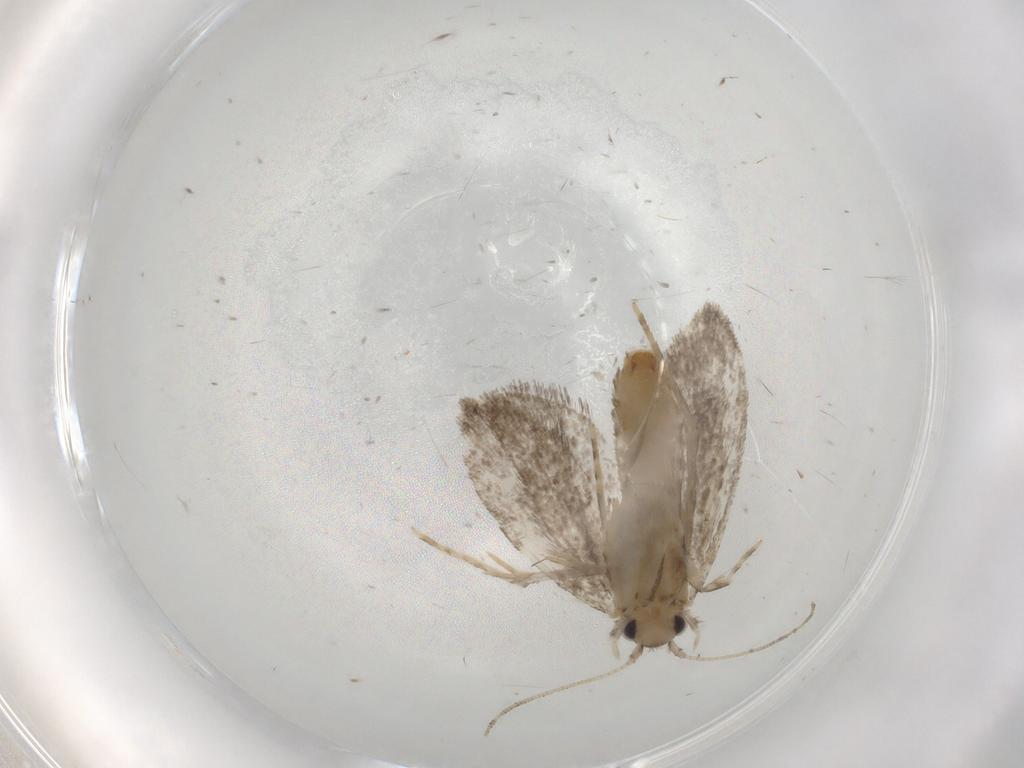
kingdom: Animalia
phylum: Arthropoda
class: Insecta
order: Lepidoptera
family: Tineidae
